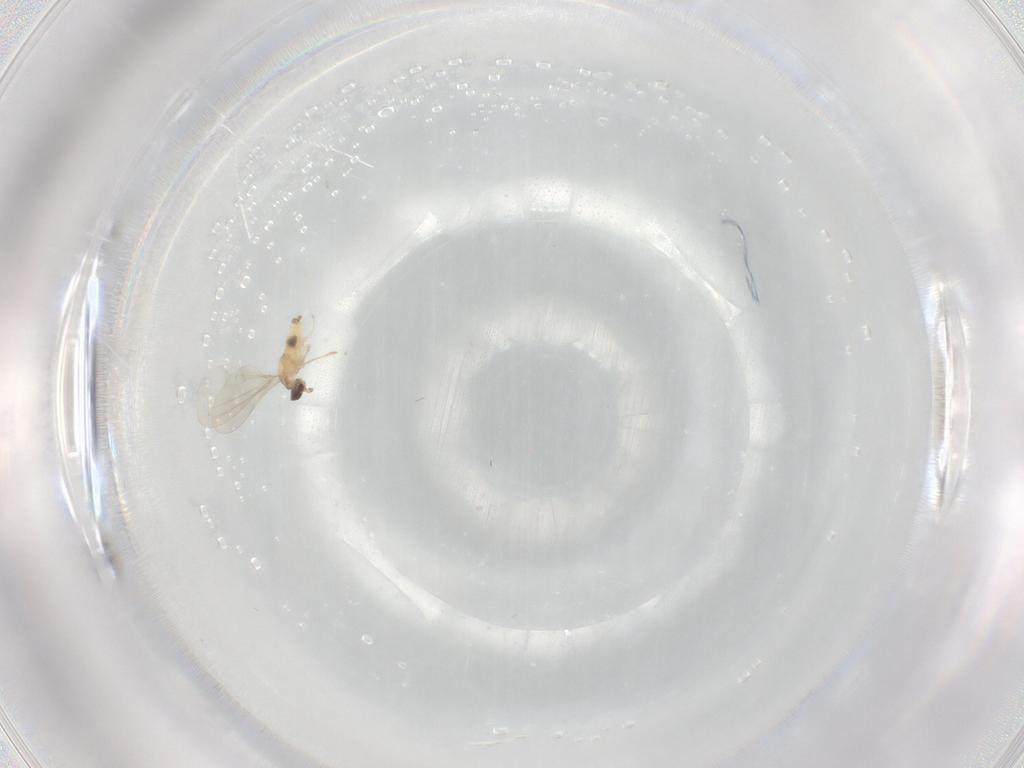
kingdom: Animalia
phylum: Arthropoda
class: Insecta
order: Diptera
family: Cecidomyiidae
